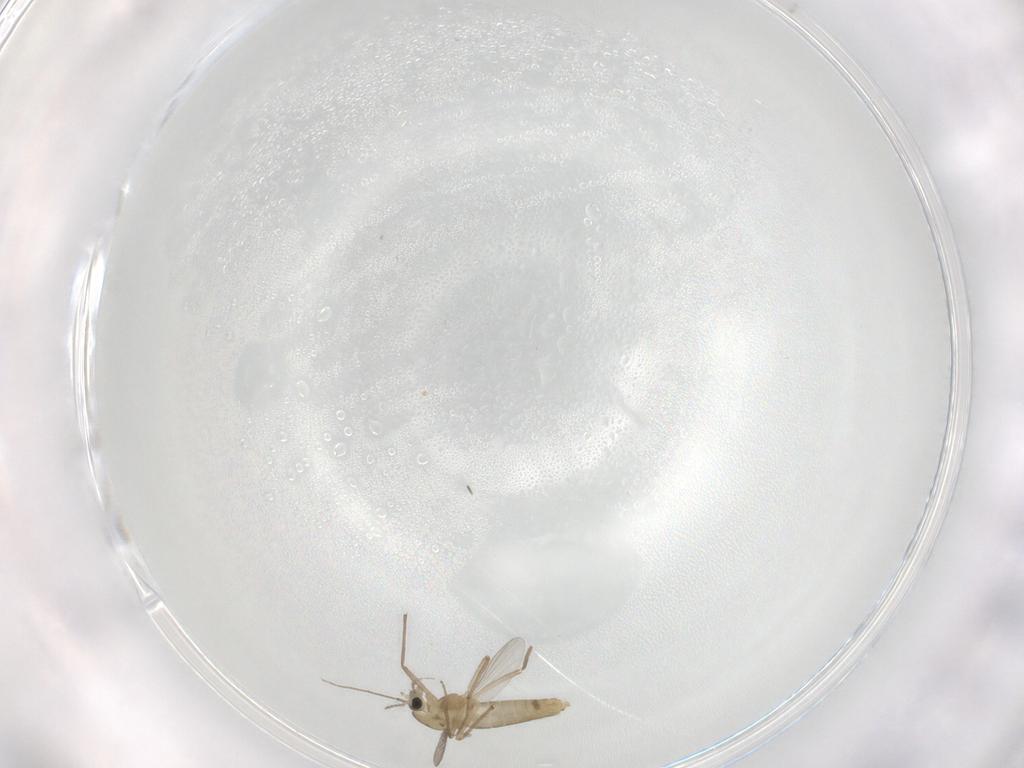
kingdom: Animalia
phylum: Arthropoda
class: Insecta
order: Diptera
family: Chironomidae
